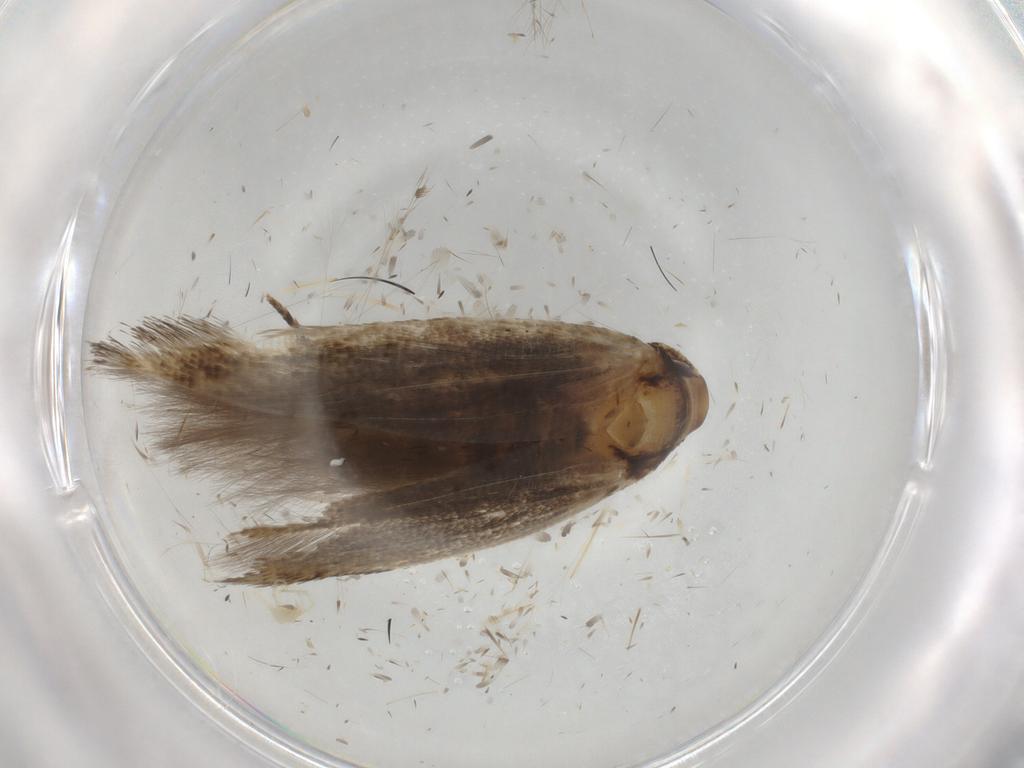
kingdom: Animalia
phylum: Arthropoda
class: Insecta
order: Lepidoptera
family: Cosmopterigidae
